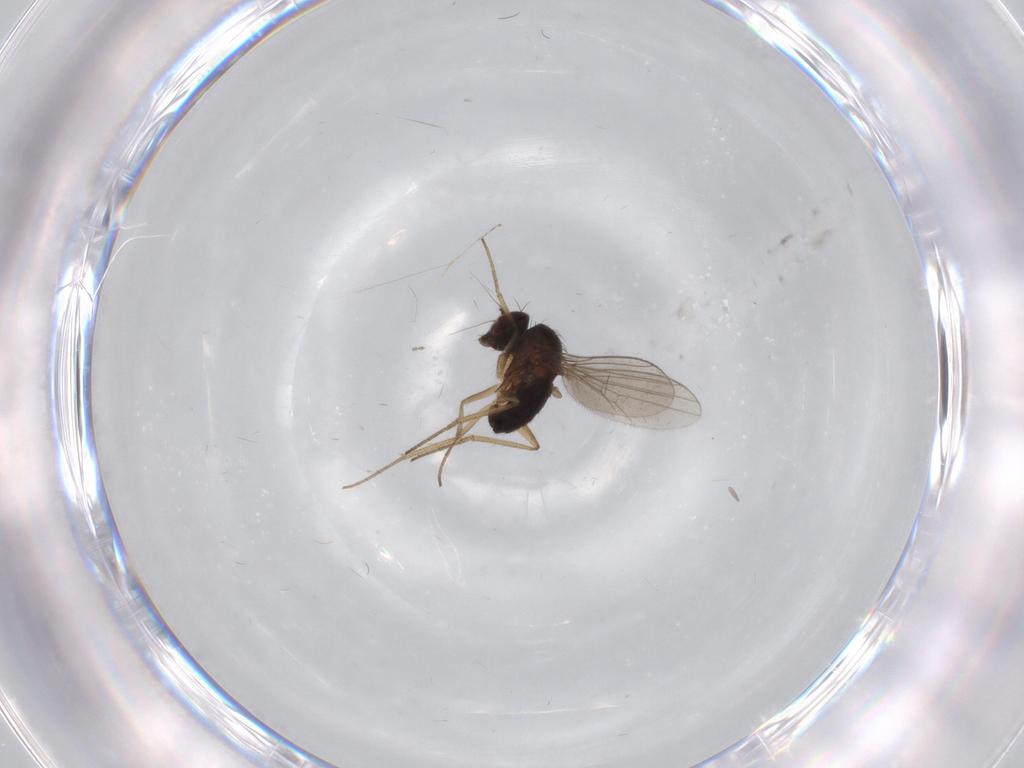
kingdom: Animalia
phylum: Arthropoda
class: Insecta
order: Diptera
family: Dolichopodidae
